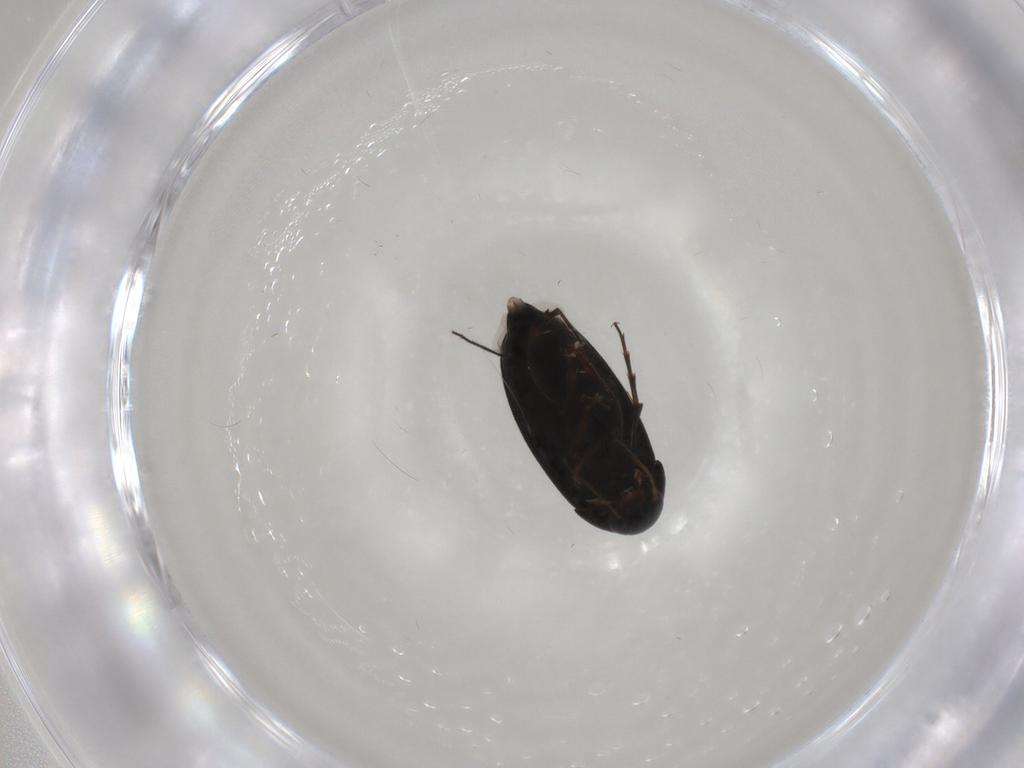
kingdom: Animalia
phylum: Arthropoda
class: Insecta
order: Coleoptera
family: Scraptiidae
